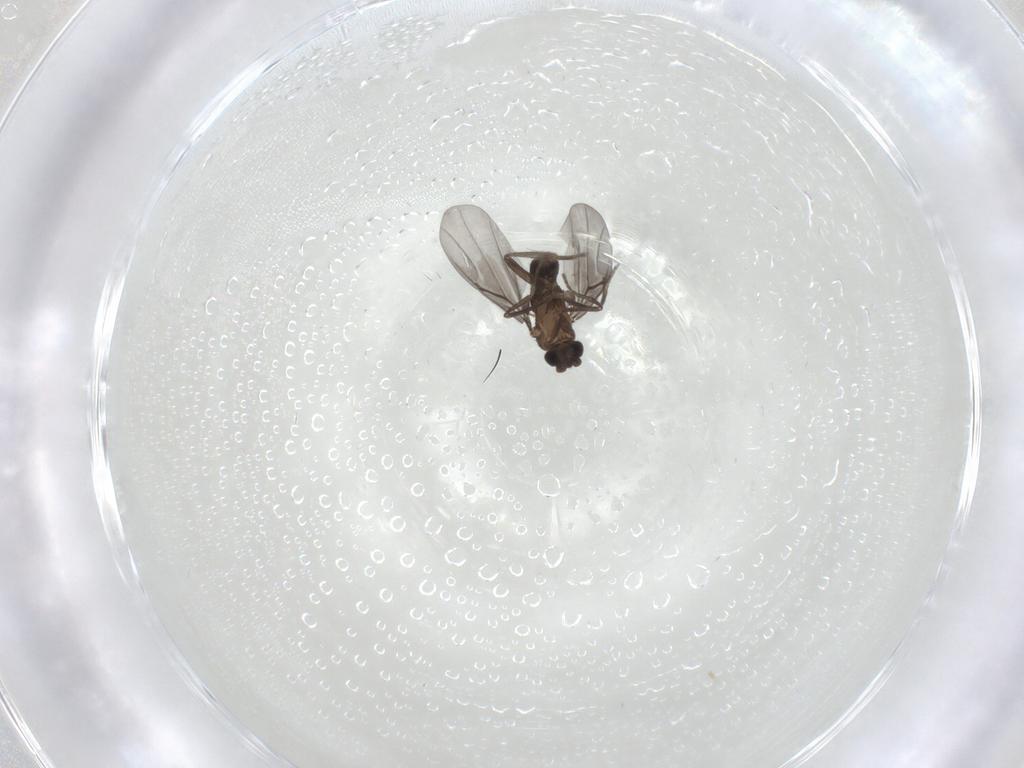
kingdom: Animalia
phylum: Arthropoda
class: Insecta
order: Diptera
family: Phoridae
